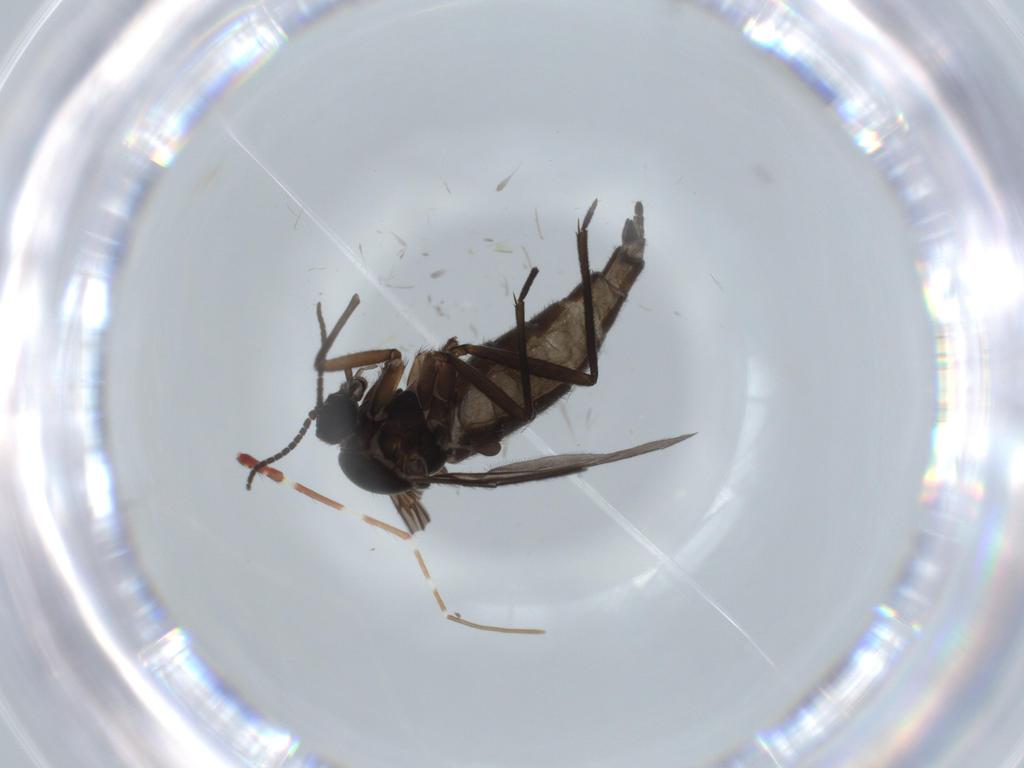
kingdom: Animalia
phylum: Arthropoda
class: Insecta
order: Diptera
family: Sciaridae
